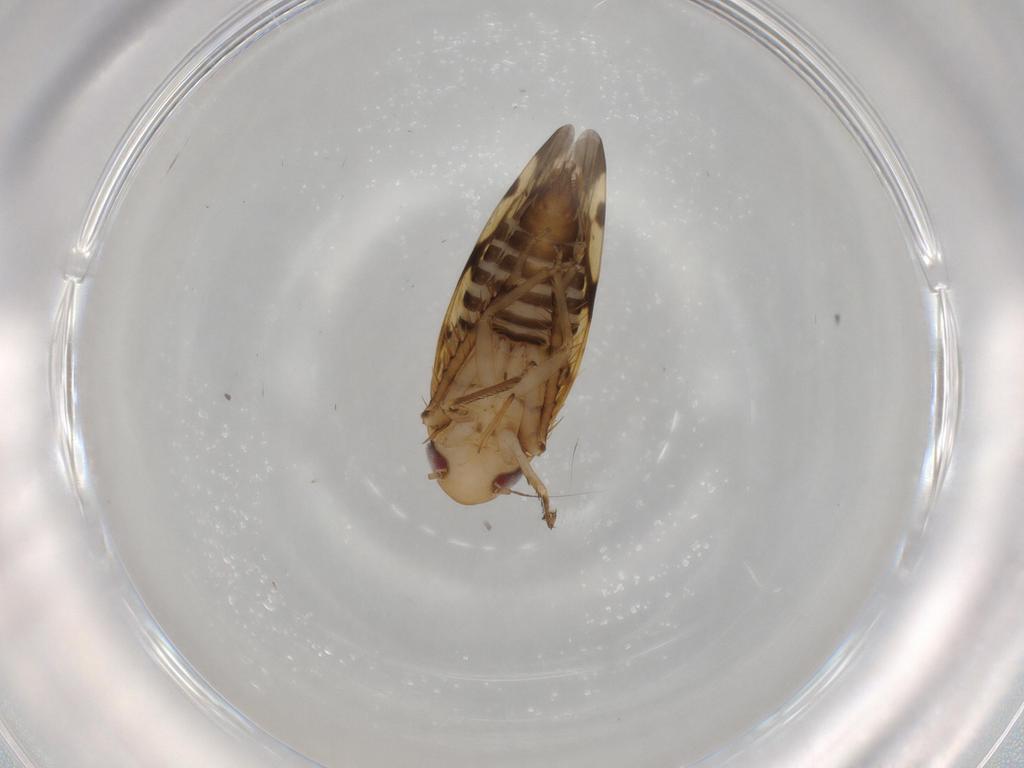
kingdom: Animalia
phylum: Arthropoda
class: Insecta
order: Hemiptera
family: Cicadellidae
